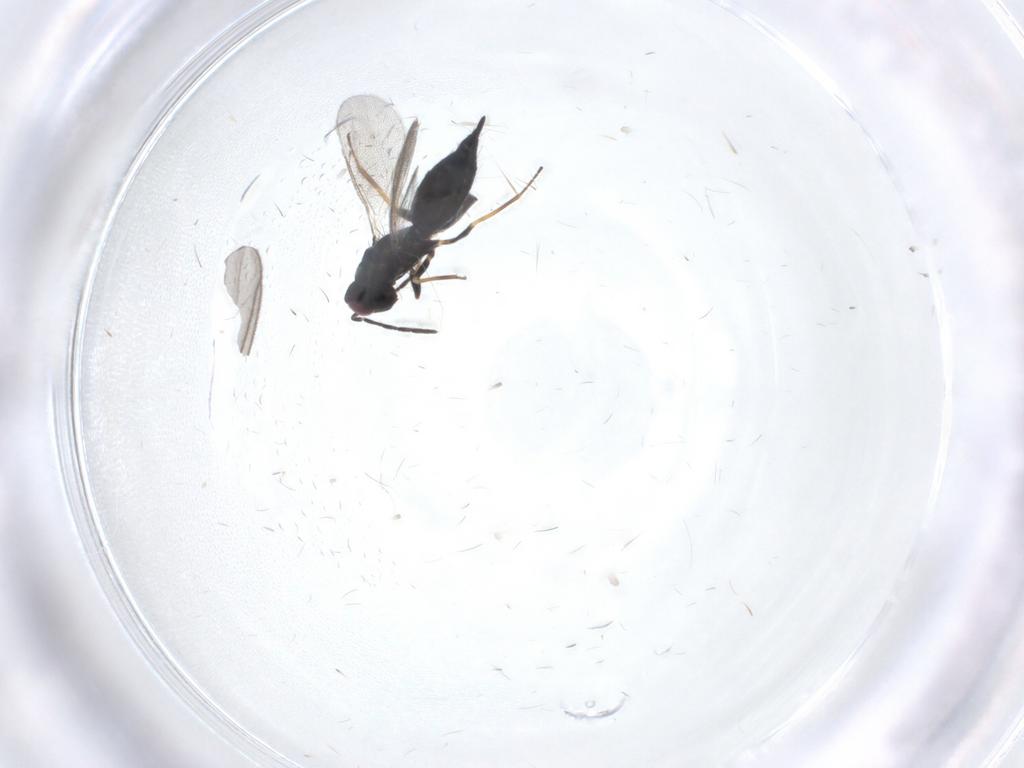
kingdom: Animalia
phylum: Arthropoda
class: Insecta
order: Hymenoptera
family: Eulophidae
